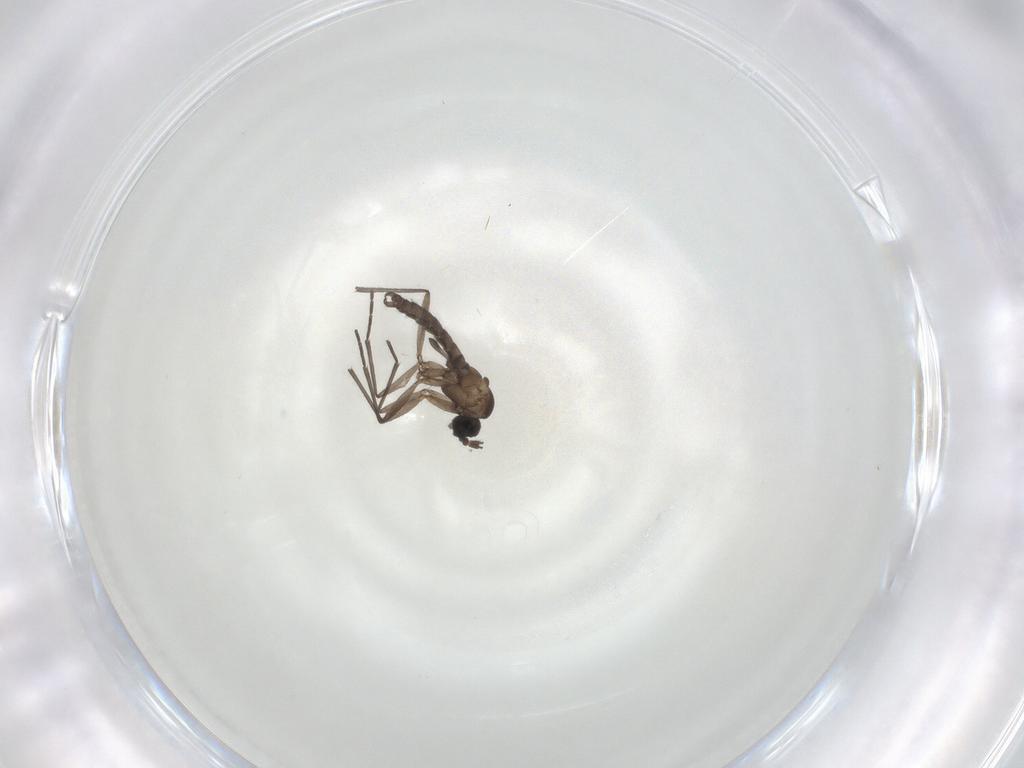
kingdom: Animalia
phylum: Arthropoda
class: Insecta
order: Diptera
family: Sciaridae
